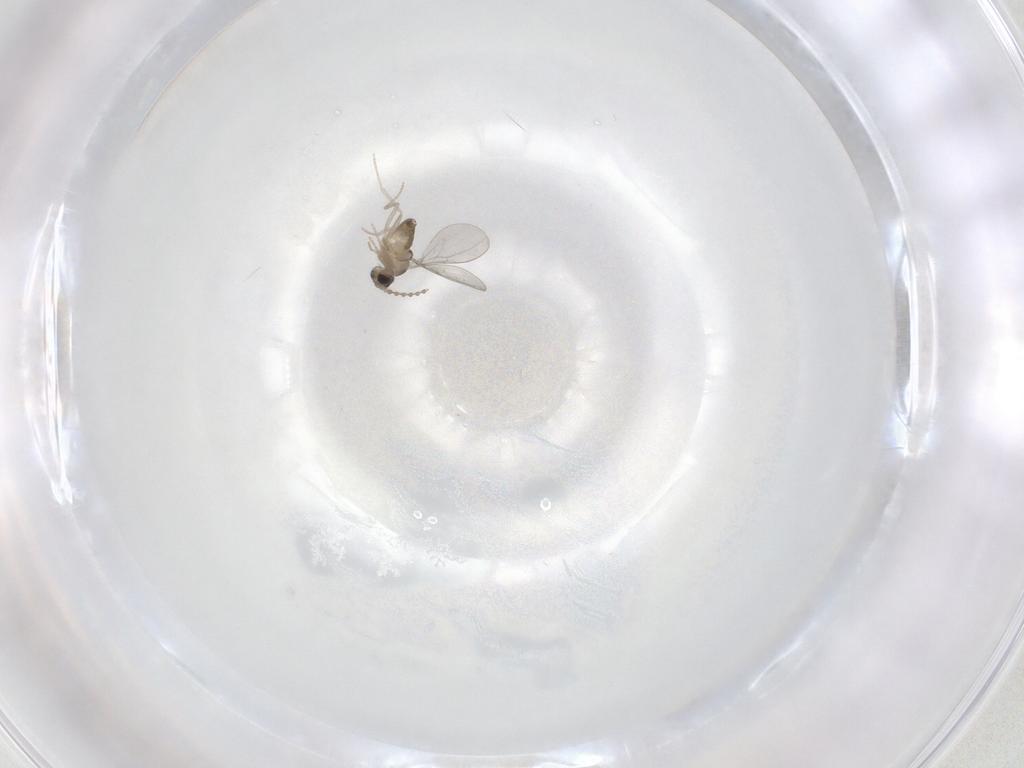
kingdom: Animalia
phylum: Arthropoda
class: Insecta
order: Diptera
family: Cecidomyiidae
